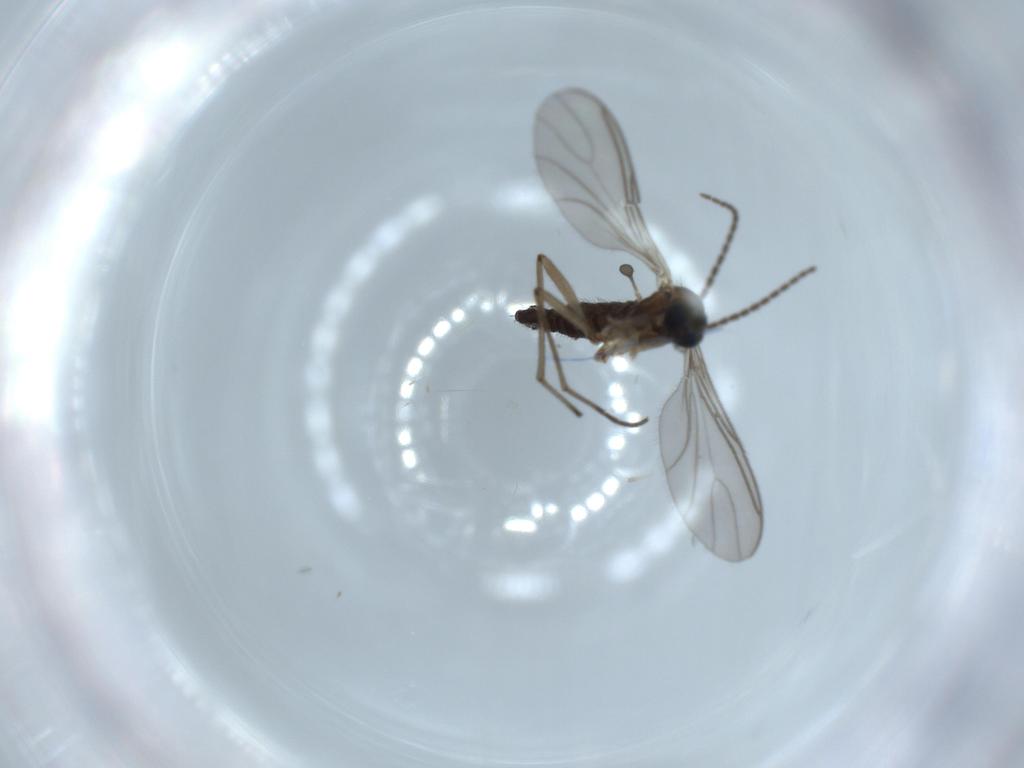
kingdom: Animalia
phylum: Arthropoda
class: Insecta
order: Diptera
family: Sciaridae
